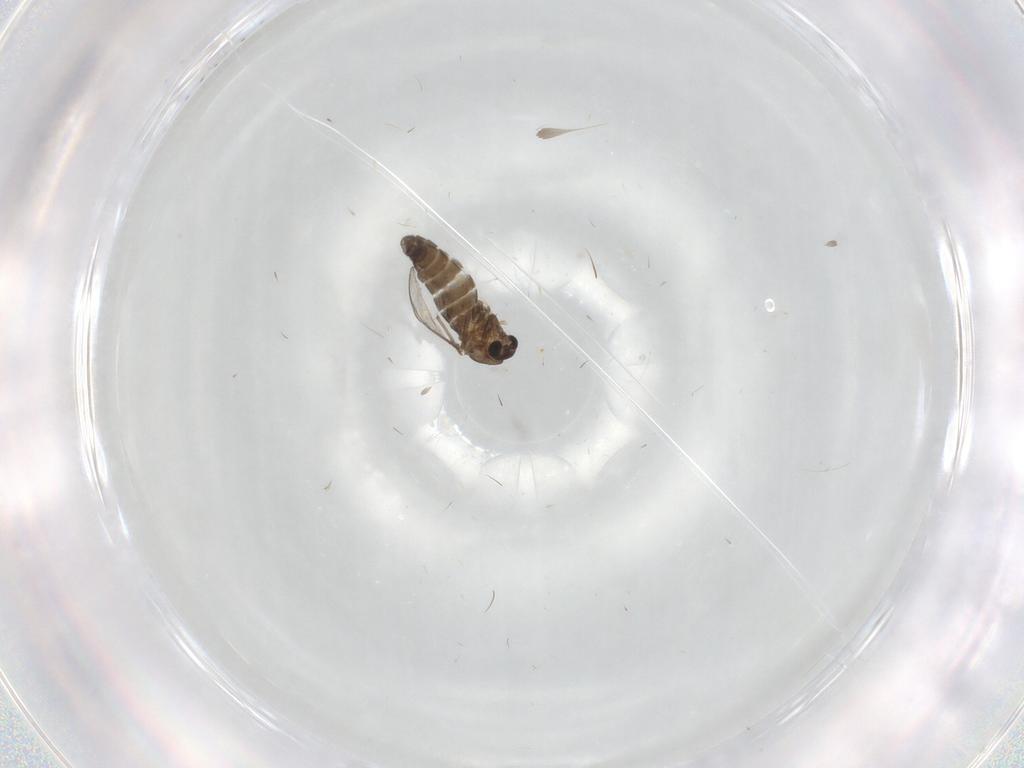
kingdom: Animalia
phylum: Arthropoda
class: Insecta
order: Diptera
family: Chironomidae
